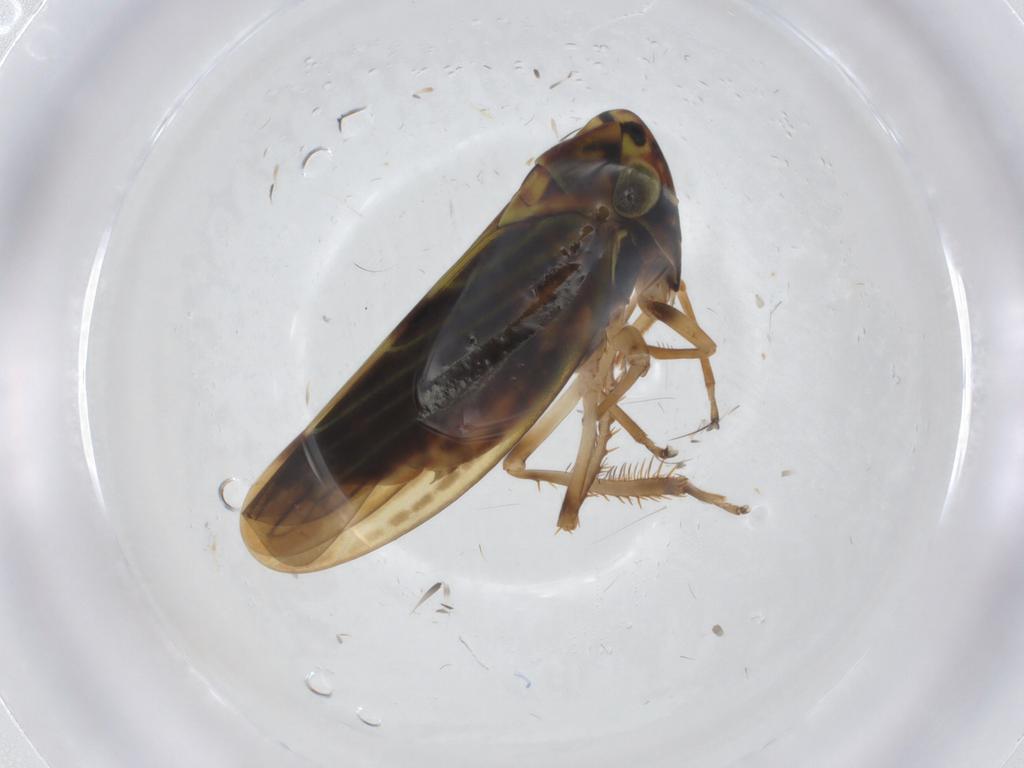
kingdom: Animalia
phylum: Arthropoda
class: Insecta
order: Hemiptera
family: Cicadellidae
